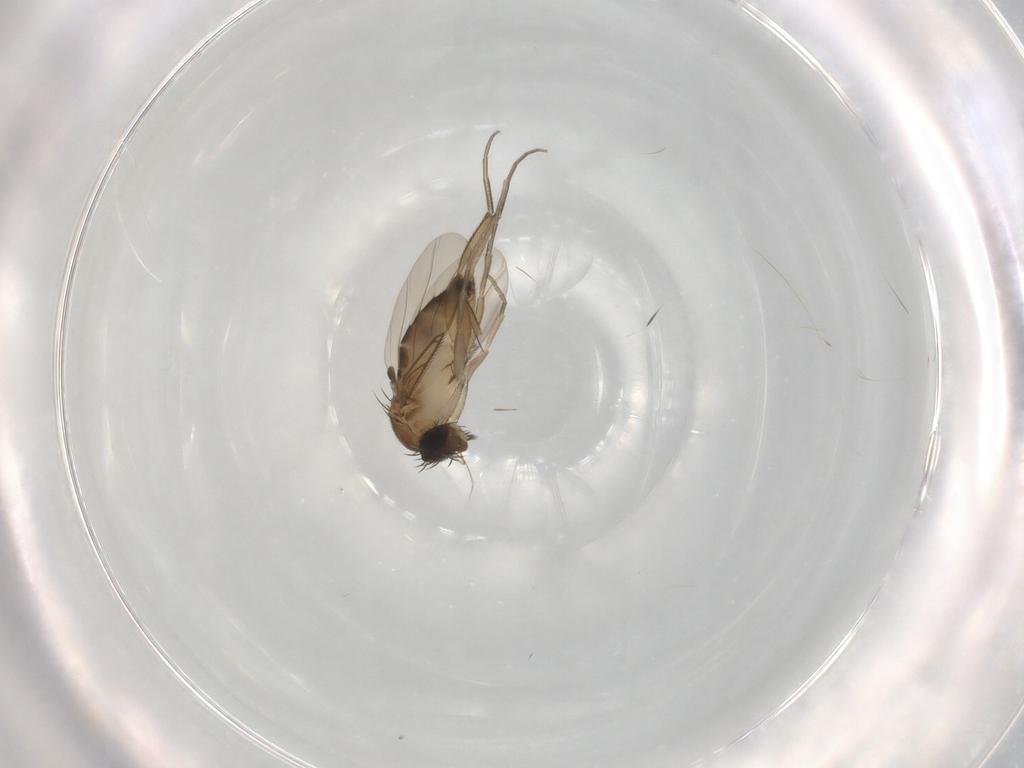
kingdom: Animalia
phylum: Arthropoda
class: Insecta
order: Diptera
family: Phoridae
